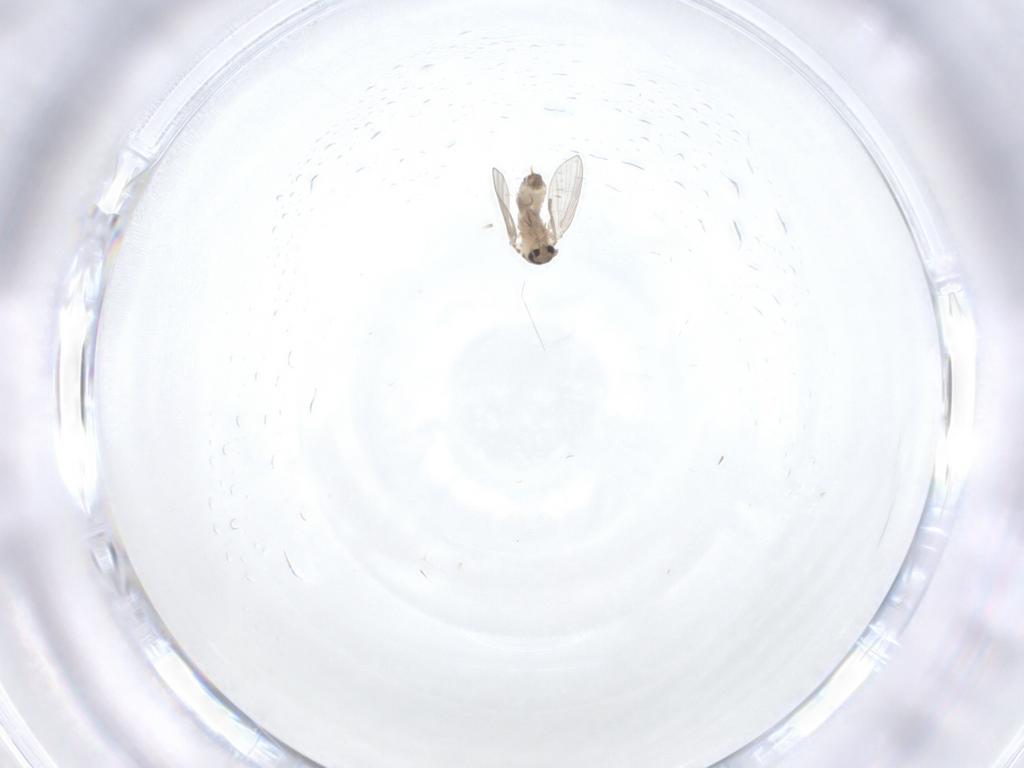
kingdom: Animalia
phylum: Arthropoda
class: Insecta
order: Diptera
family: Psychodidae
